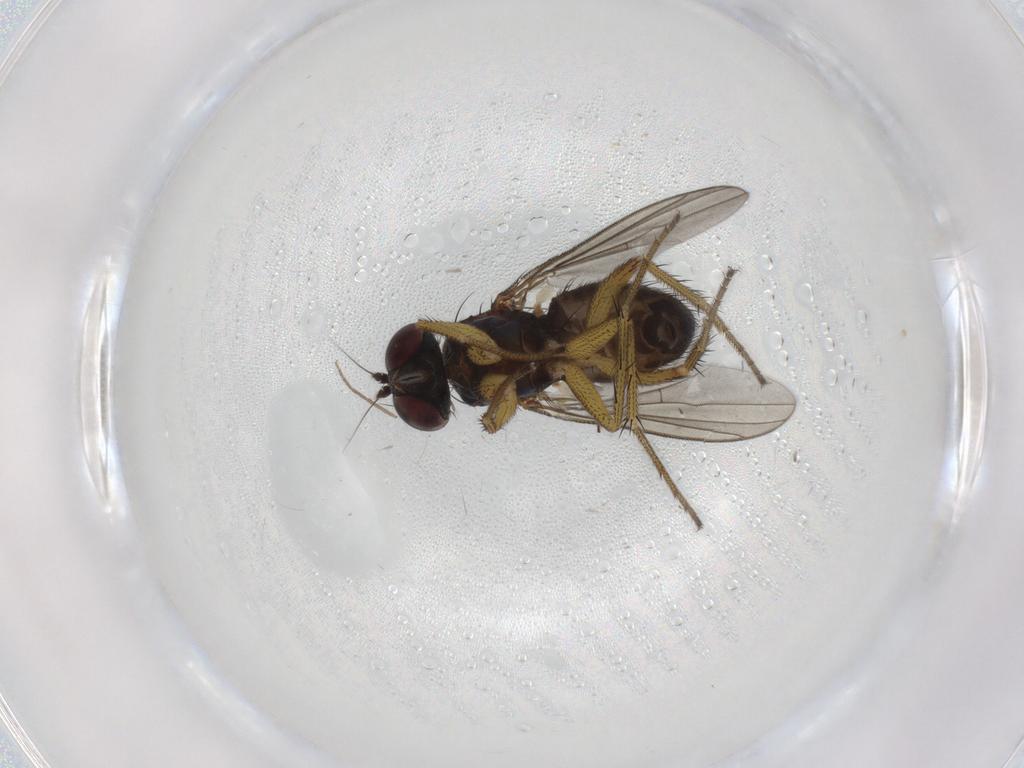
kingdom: Animalia
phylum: Arthropoda
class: Insecta
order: Diptera
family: Dolichopodidae
